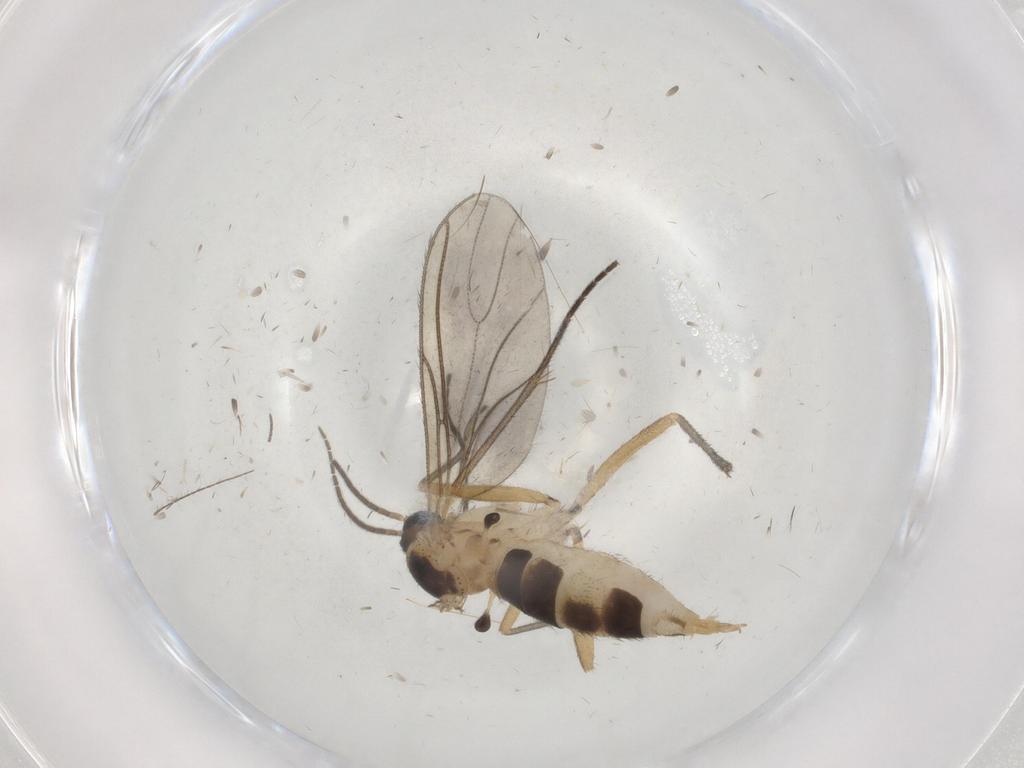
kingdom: Animalia
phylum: Arthropoda
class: Insecta
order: Diptera
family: Sciaridae
